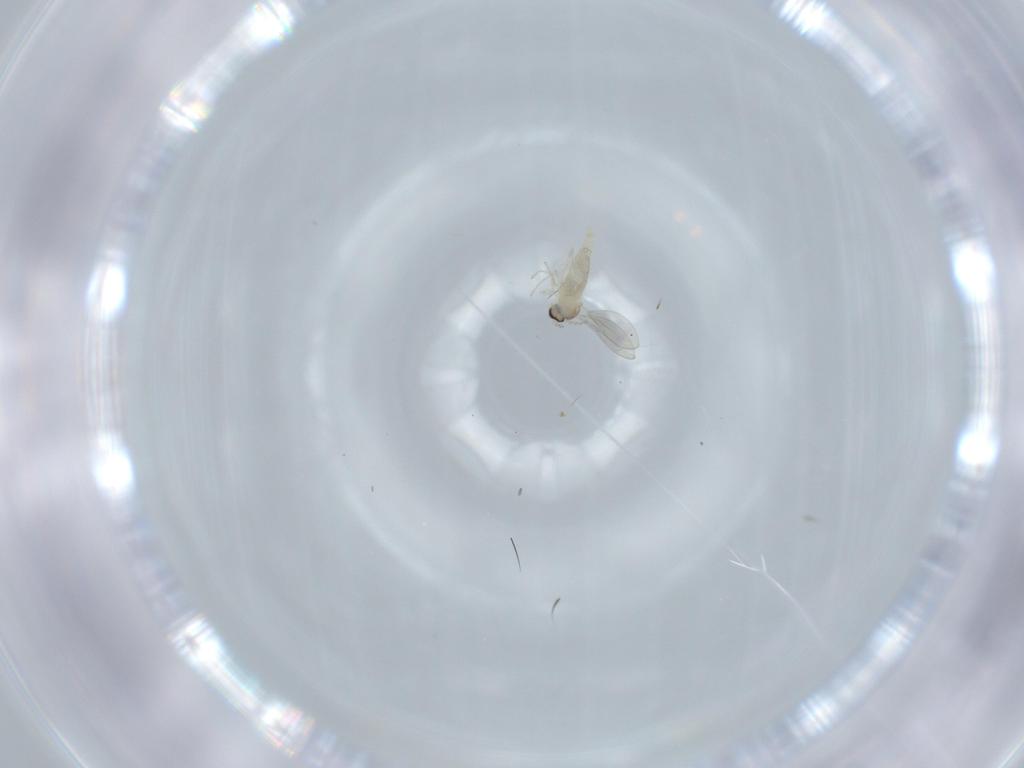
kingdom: Animalia
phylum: Arthropoda
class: Insecta
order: Diptera
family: Cecidomyiidae
